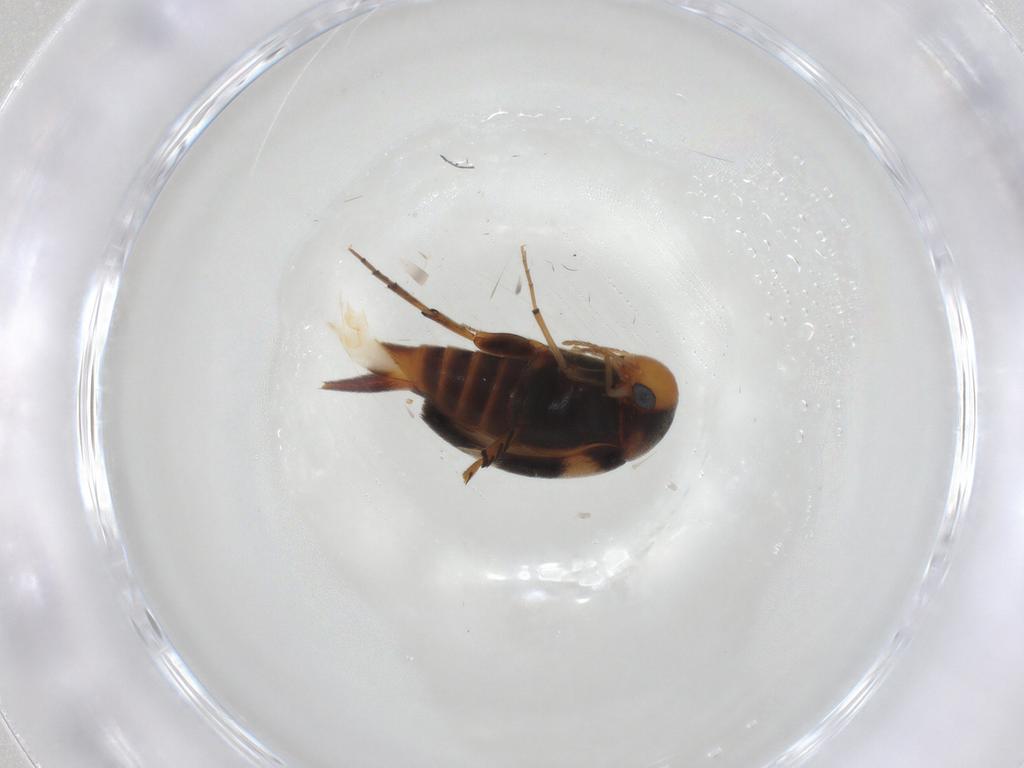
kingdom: Animalia
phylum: Arthropoda
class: Insecta
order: Coleoptera
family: Mordellidae
